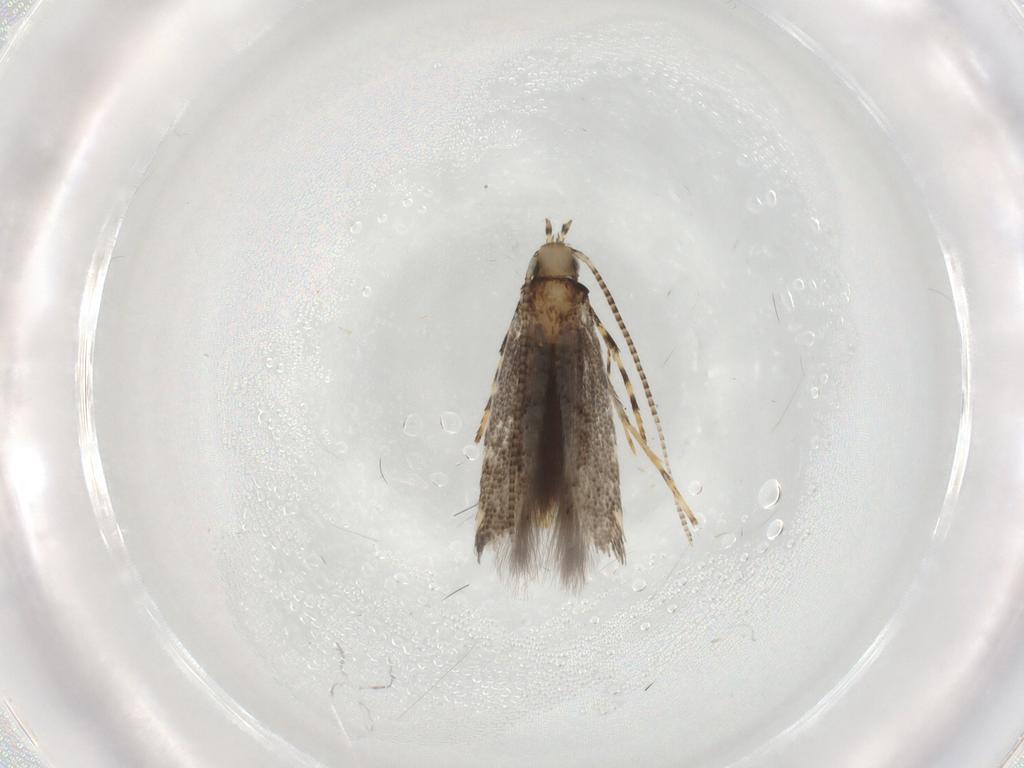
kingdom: Animalia
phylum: Arthropoda
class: Insecta
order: Lepidoptera
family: Gracillariidae
